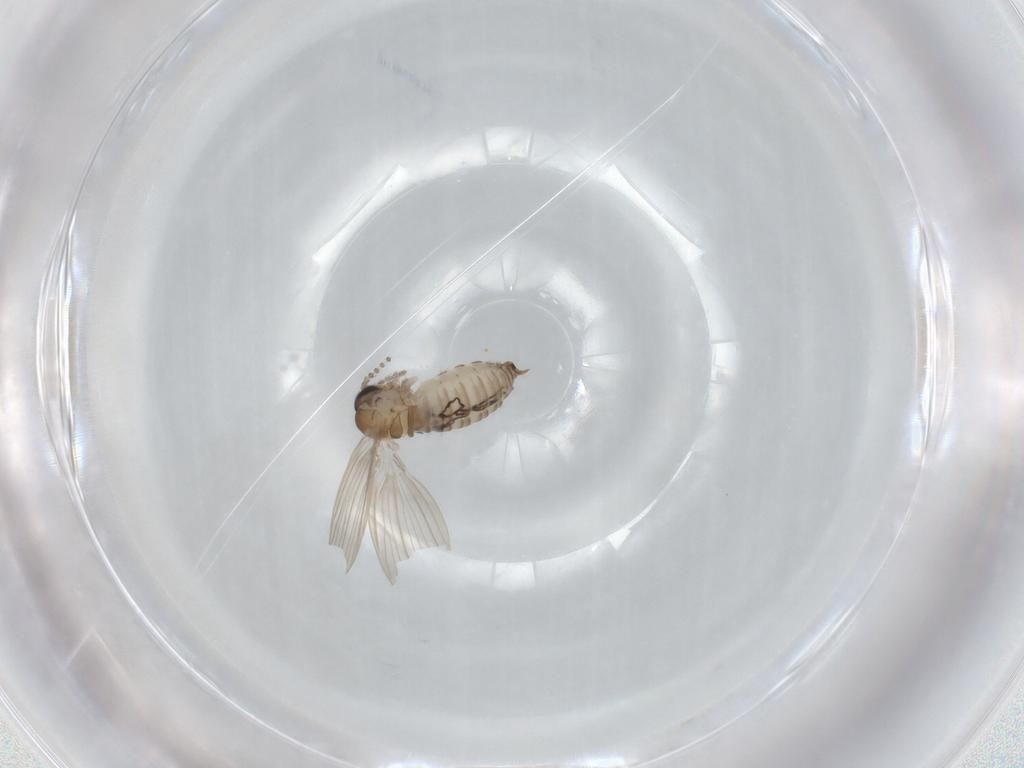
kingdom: Animalia
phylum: Arthropoda
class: Insecta
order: Diptera
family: Psychodidae
